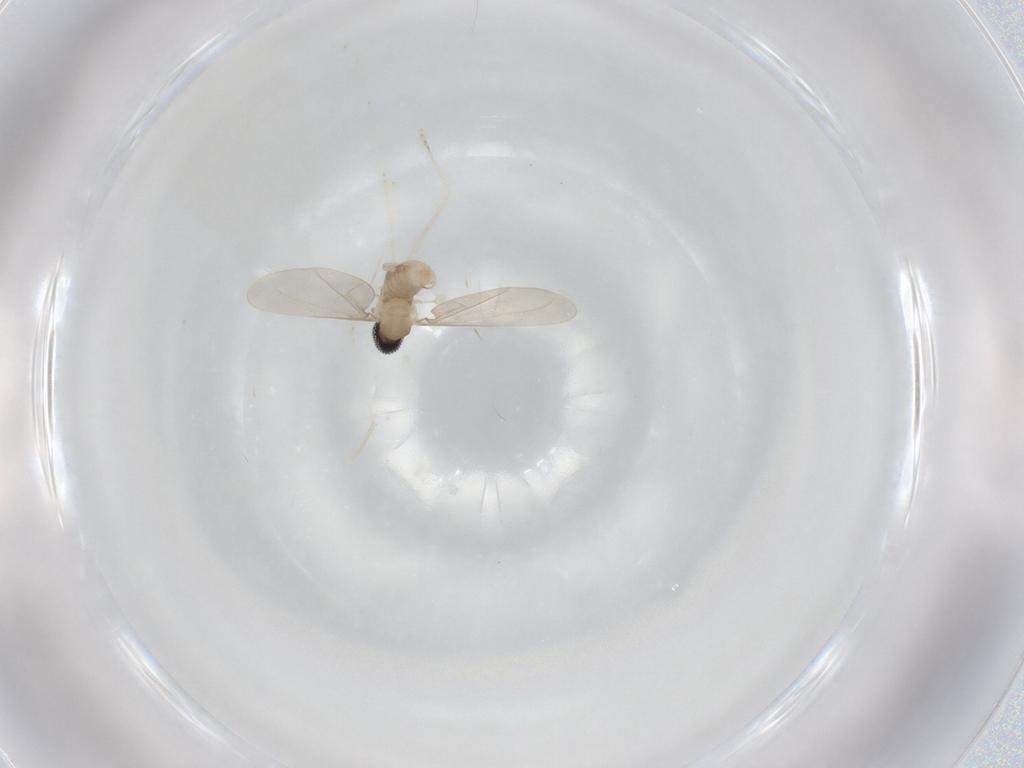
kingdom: Animalia
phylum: Arthropoda
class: Insecta
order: Diptera
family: Cecidomyiidae
